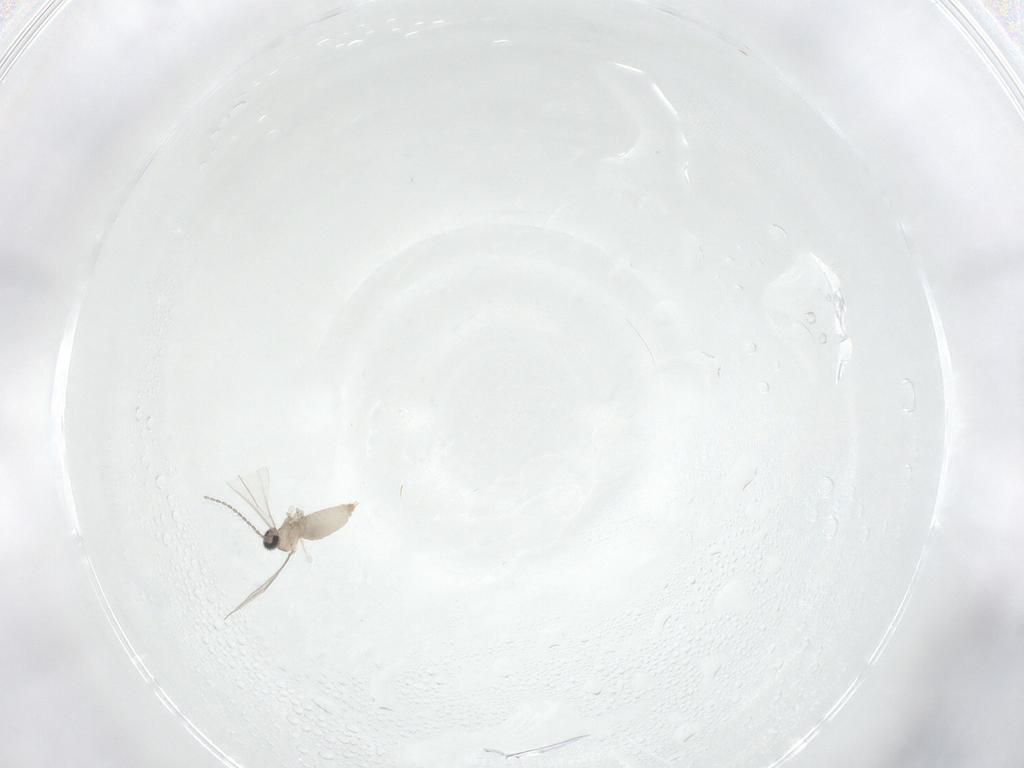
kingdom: Animalia
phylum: Arthropoda
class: Insecta
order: Diptera
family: Cecidomyiidae
